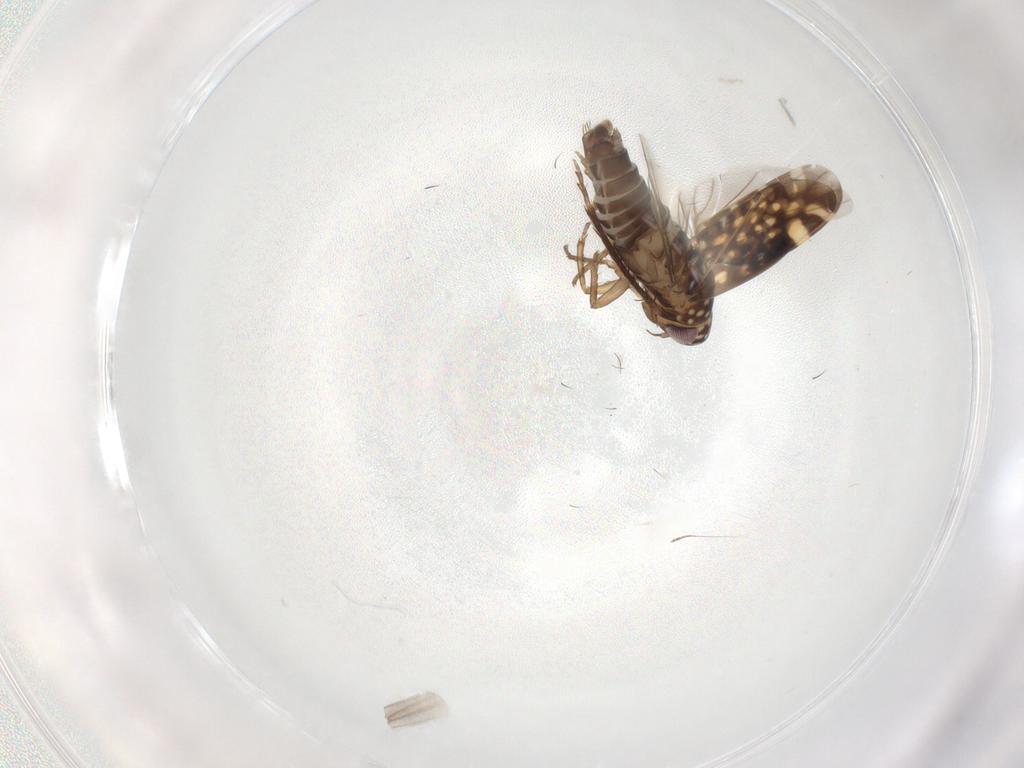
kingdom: Animalia
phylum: Arthropoda
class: Insecta
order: Hemiptera
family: Cicadellidae
